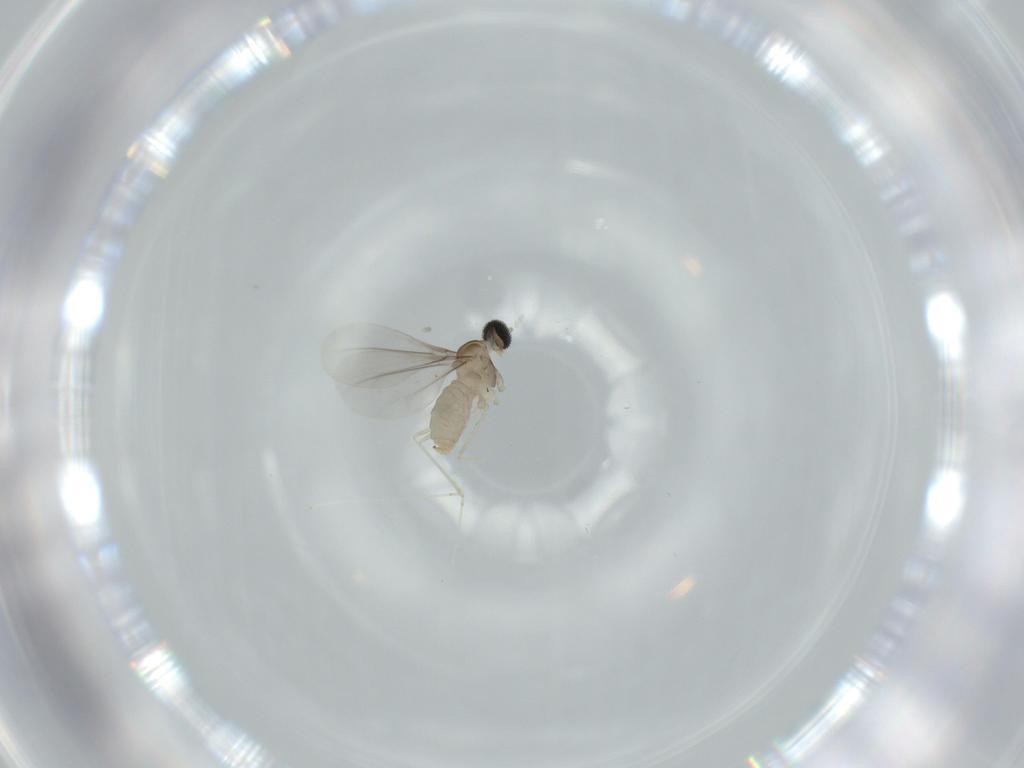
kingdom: Animalia
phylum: Arthropoda
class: Insecta
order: Diptera
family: Cecidomyiidae
